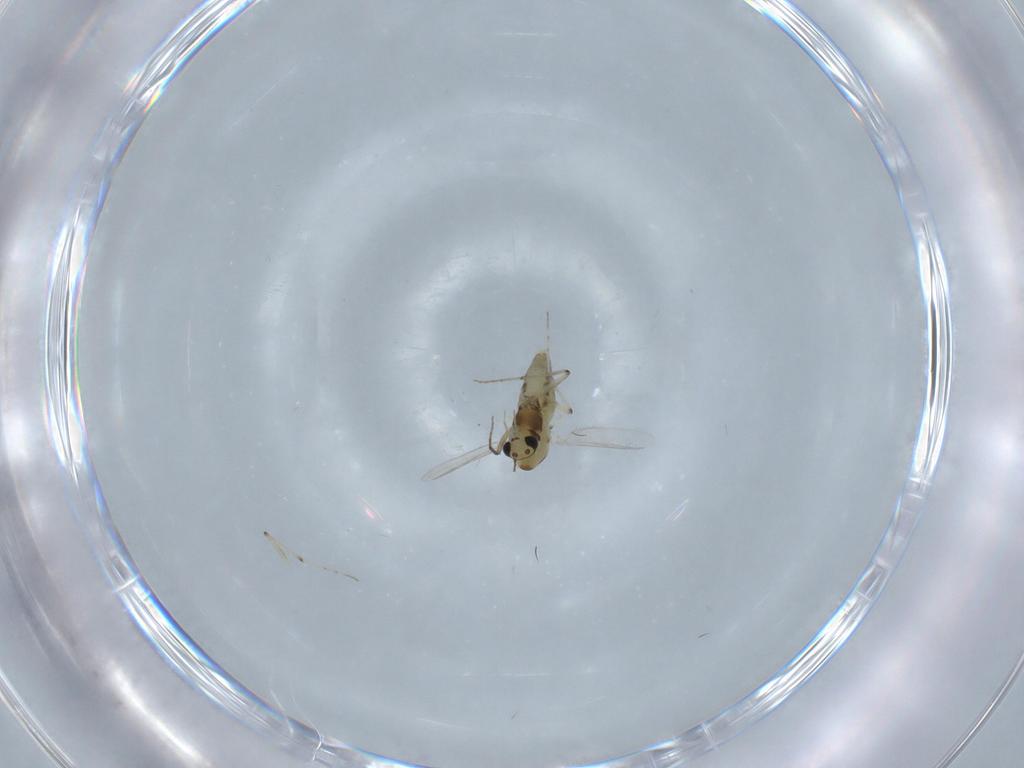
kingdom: Animalia
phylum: Arthropoda
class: Insecta
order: Diptera
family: Chironomidae
